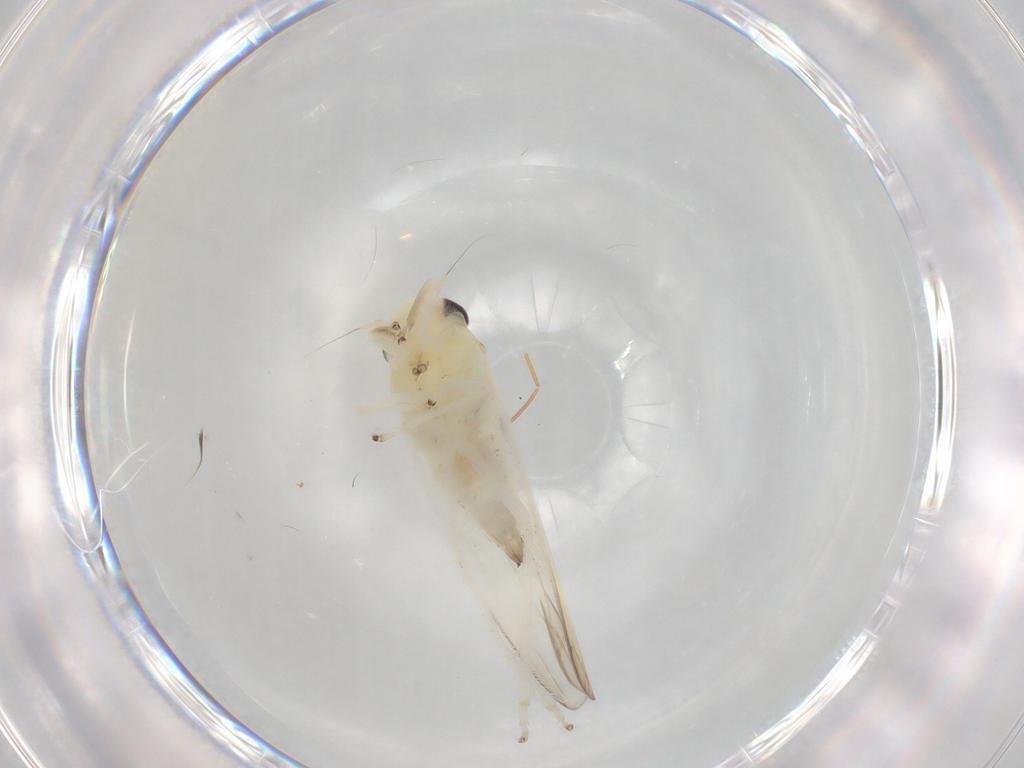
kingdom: Animalia
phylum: Arthropoda
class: Insecta
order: Hemiptera
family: Cicadellidae
